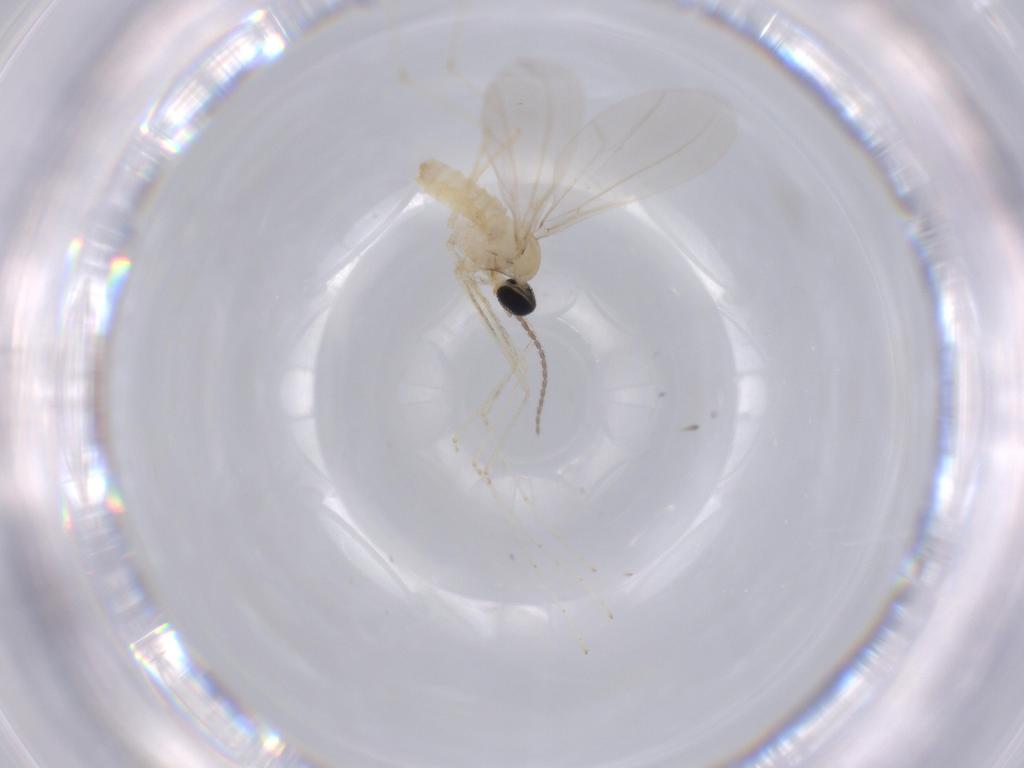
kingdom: Animalia
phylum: Arthropoda
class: Insecta
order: Diptera
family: Cecidomyiidae
